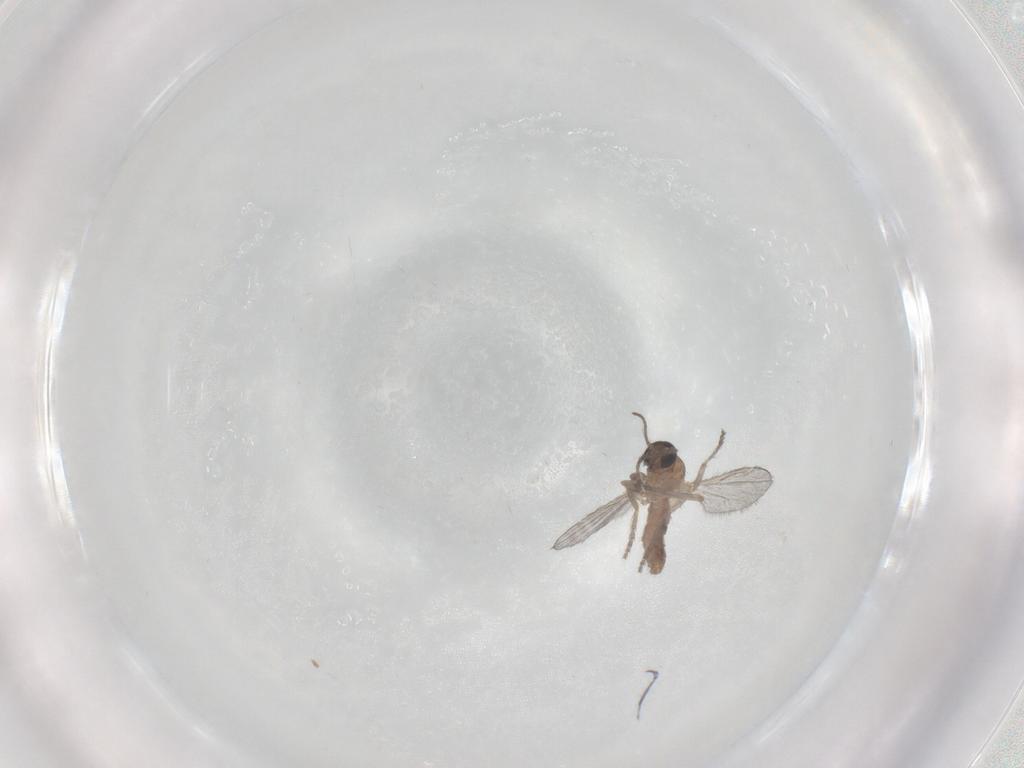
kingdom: Animalia
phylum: Arthropoda
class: Insecta
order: Diptera
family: Ceratopogonidae
